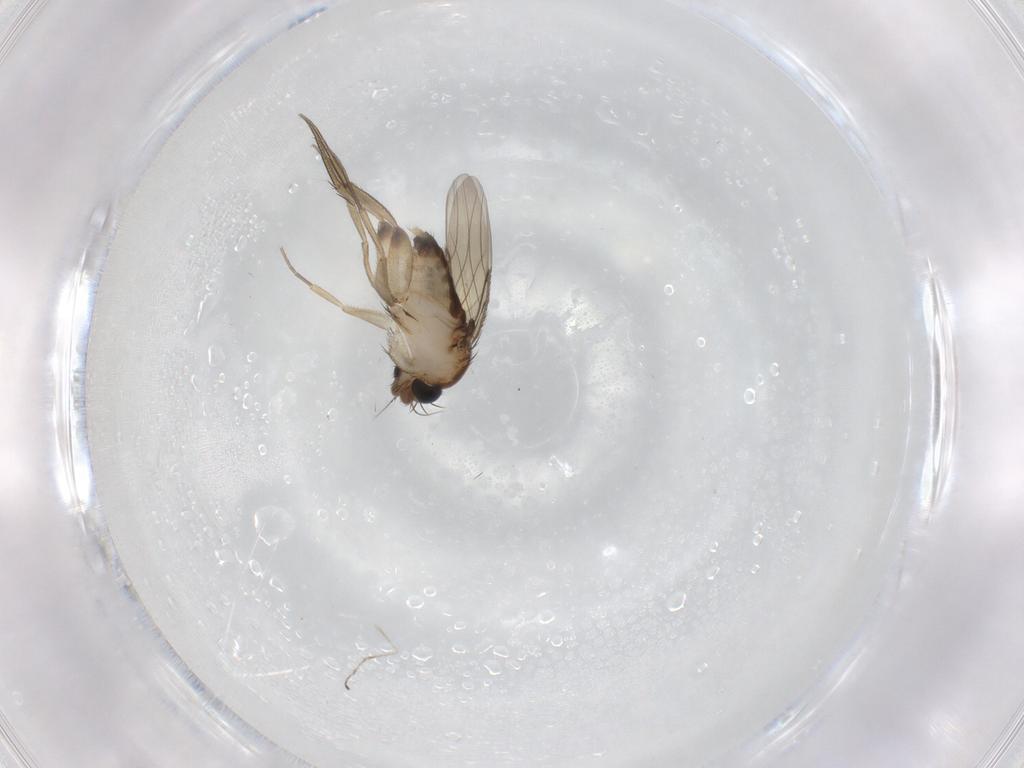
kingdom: Animalia
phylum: Arthropoda
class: Insecta
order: Diptera
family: Phoridae
